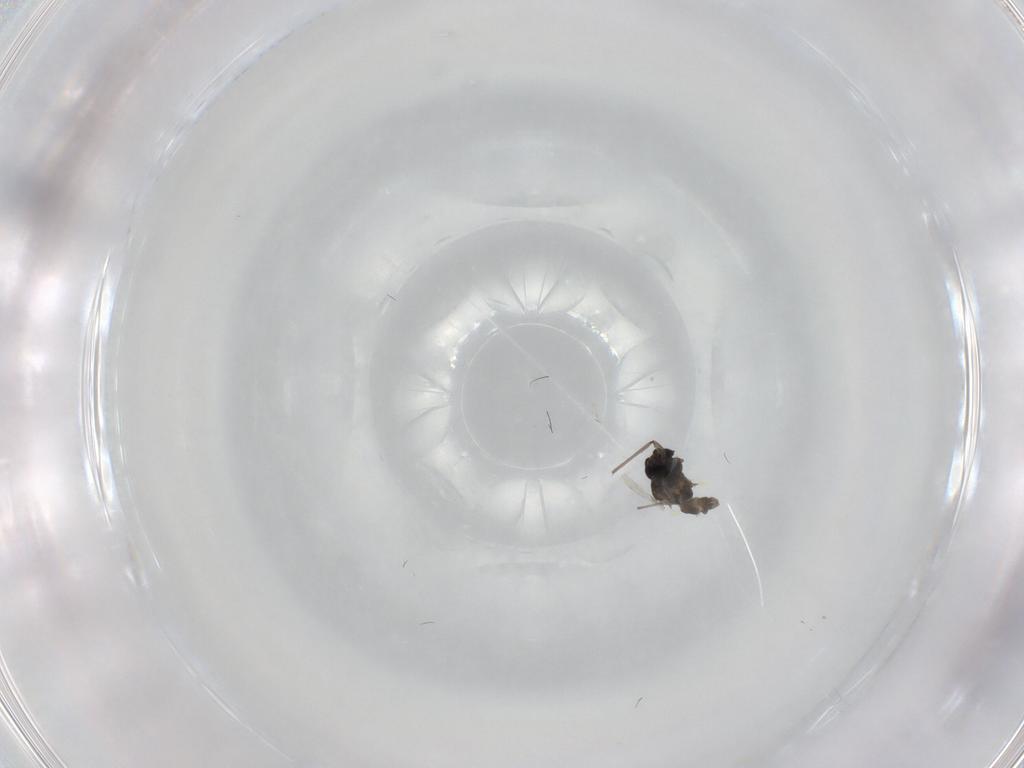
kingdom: Animalia
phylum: Arthropoda
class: Insecta
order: Diptera
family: Chironomidae
